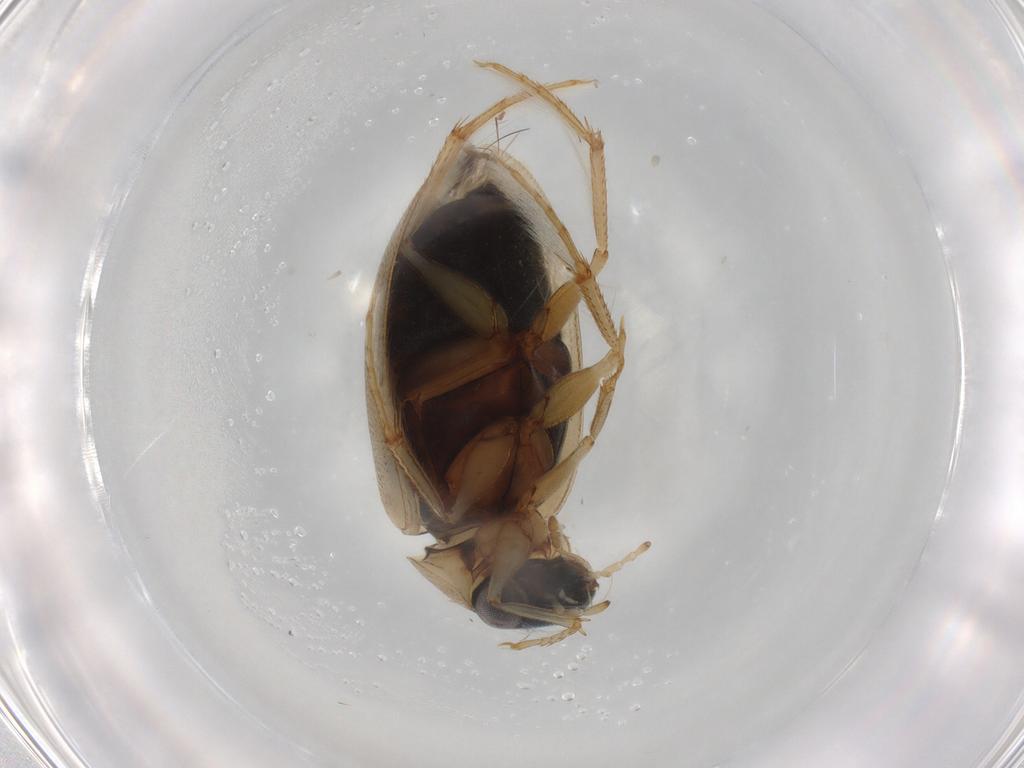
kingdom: Animalia
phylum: Arthropoda
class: Insecta
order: Coleoptera
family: Hydrophilidae
